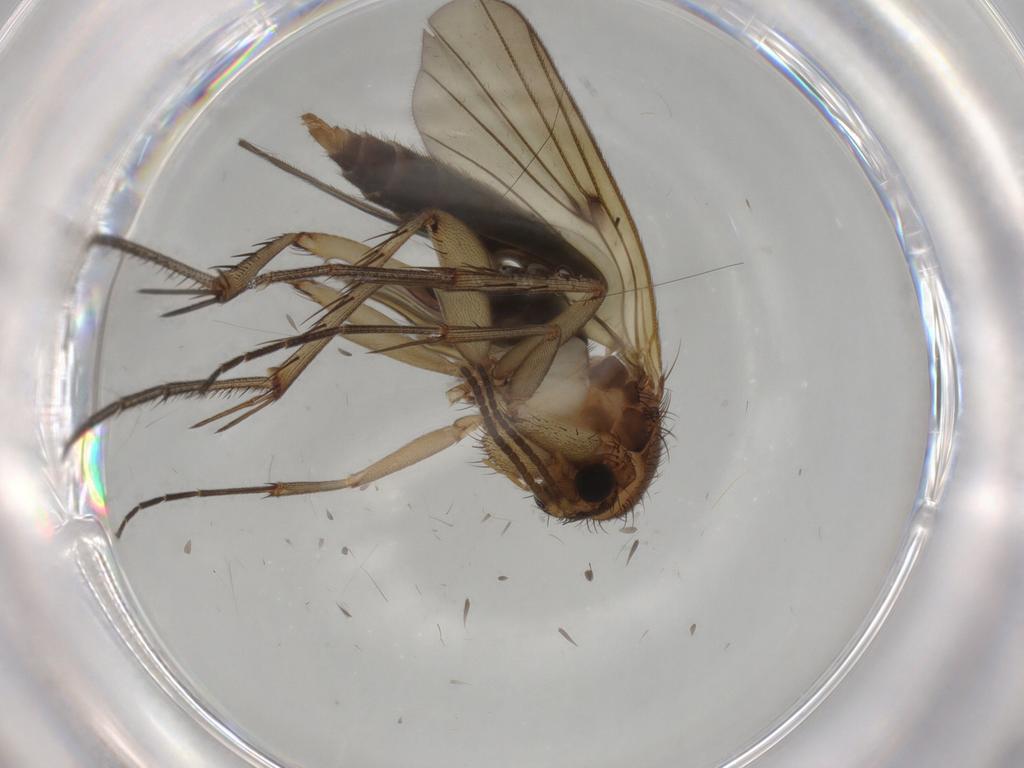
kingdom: Animalia
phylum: Arthropoda
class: Insecta
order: Diptera
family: Mycetophilidae
